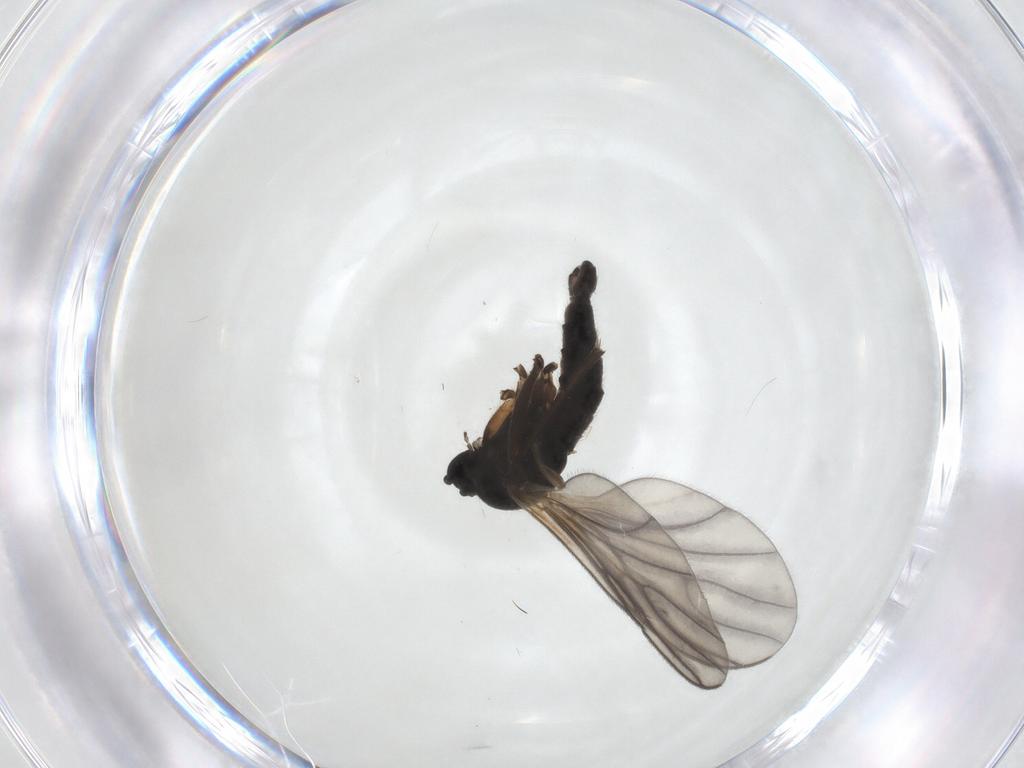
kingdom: Animalia
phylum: Arthropoda
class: Insecta
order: Diptera
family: Sciaridae
